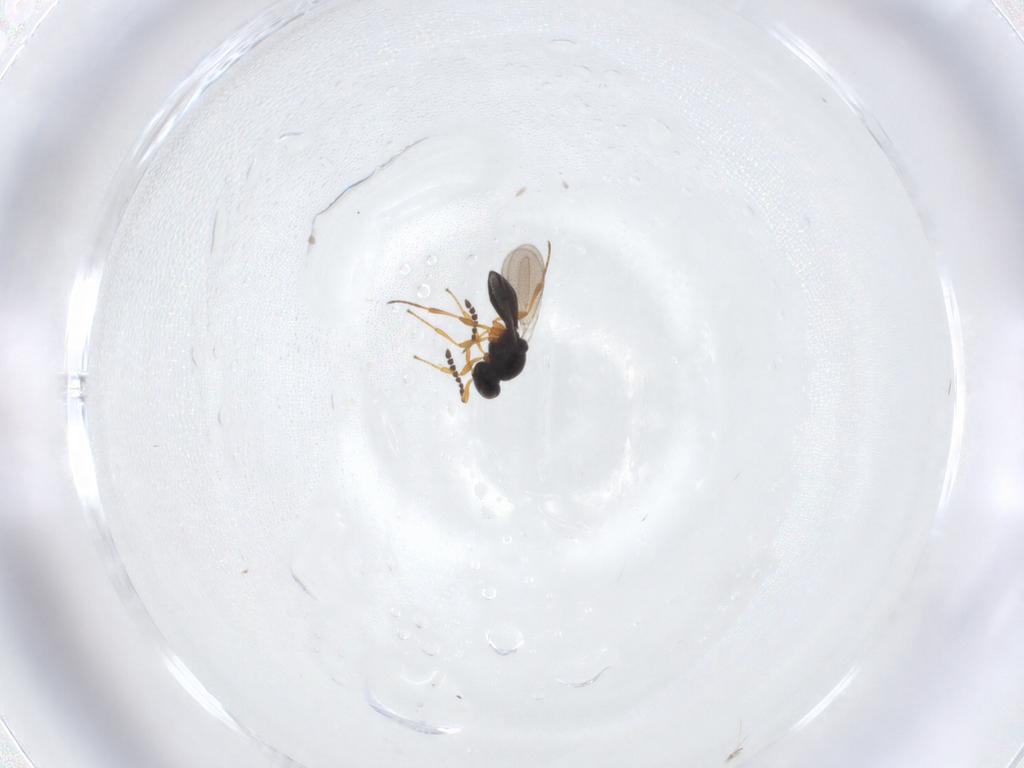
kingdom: Animalia
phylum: Arthropoda
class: Insecta
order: Hymenoptera
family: Platygastridae
